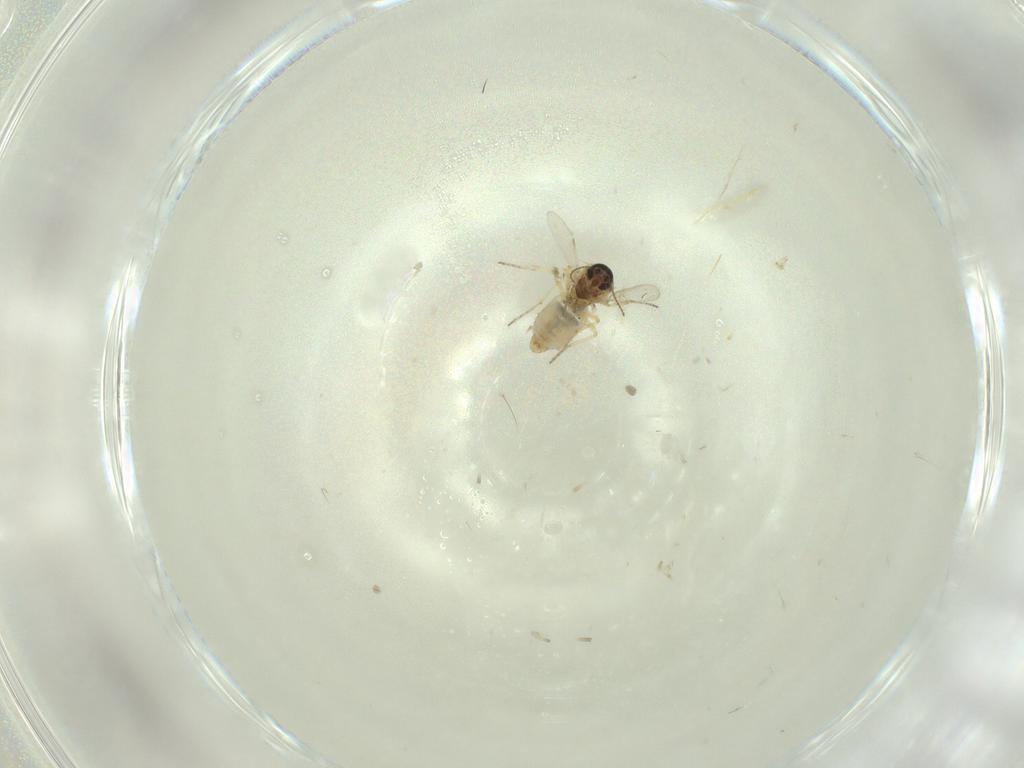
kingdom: Animalia
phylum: Arthropoda
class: Insecta
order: Diptera
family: Ceratopogonidae
